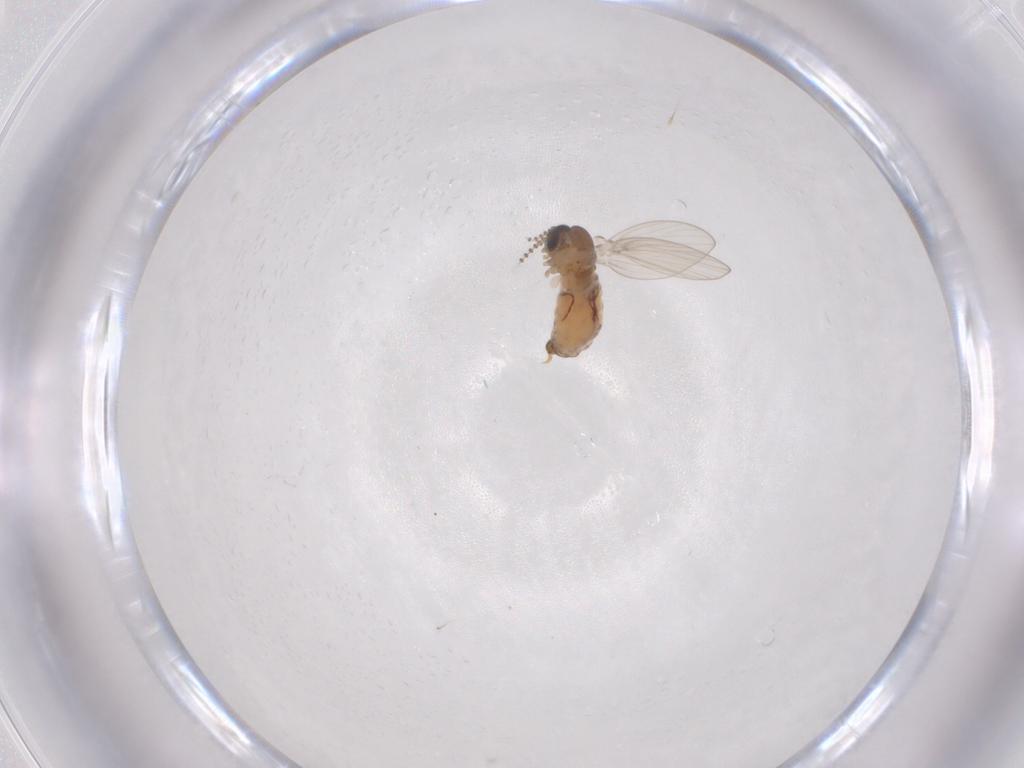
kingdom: Animalia
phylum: Arthropoda
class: Insecta
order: Diptera
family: Psychodidae
